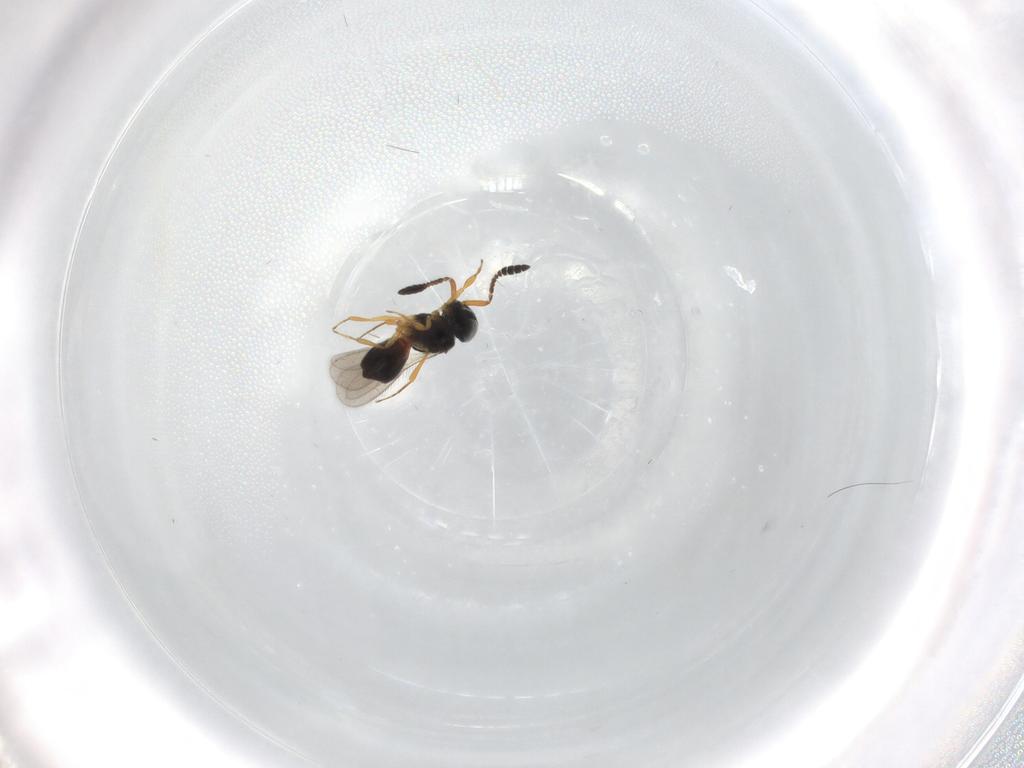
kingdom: Animalia
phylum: Arthropoda
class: Insecta
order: Hymenoptera
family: Scelionidae
